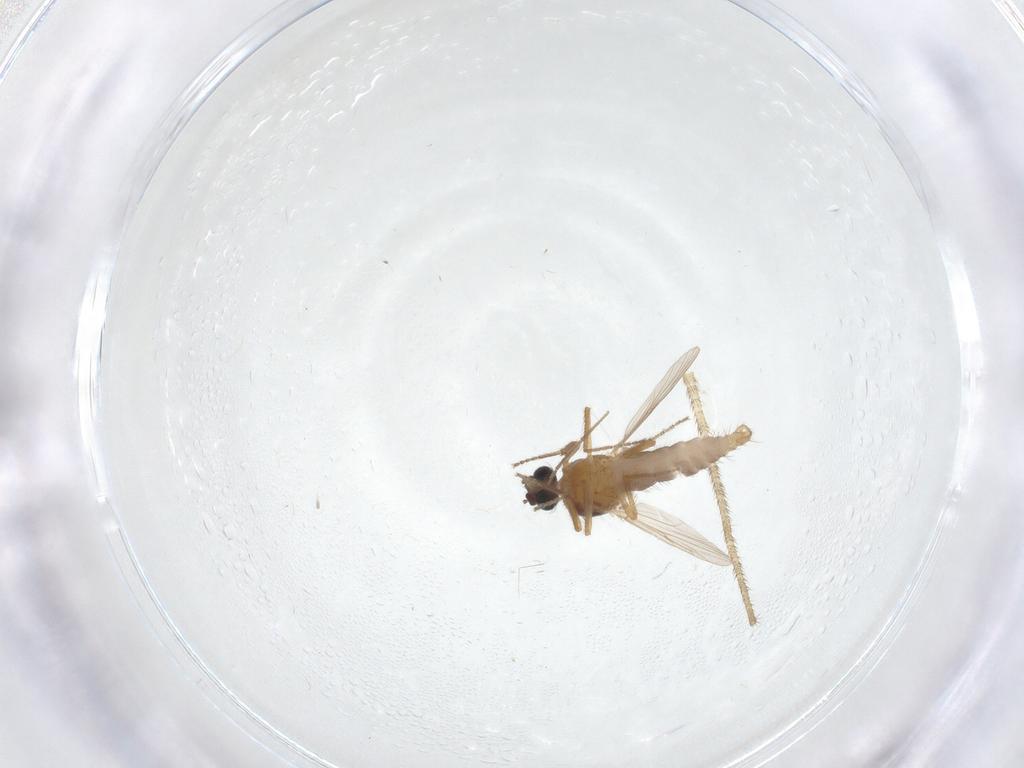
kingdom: Animalia
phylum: Arthropoda
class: Insecta
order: Diptera
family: Ceratopogonidae
